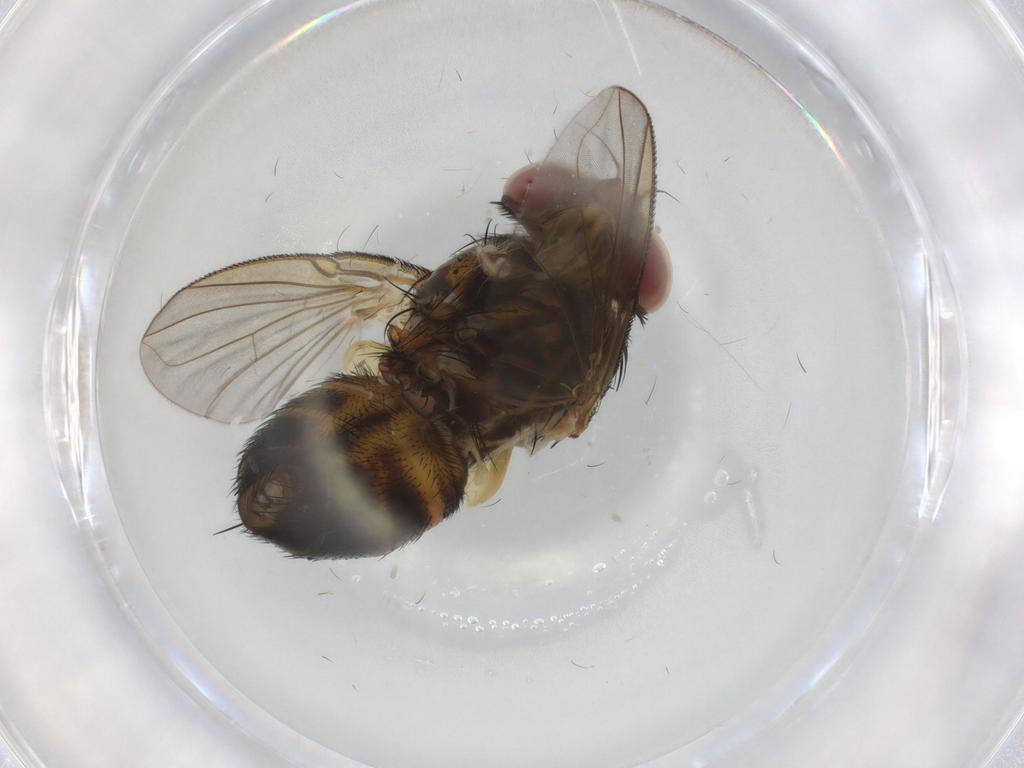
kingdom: Animalia
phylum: Arthropoda
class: Insecta
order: Diptera
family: Tachinidae
